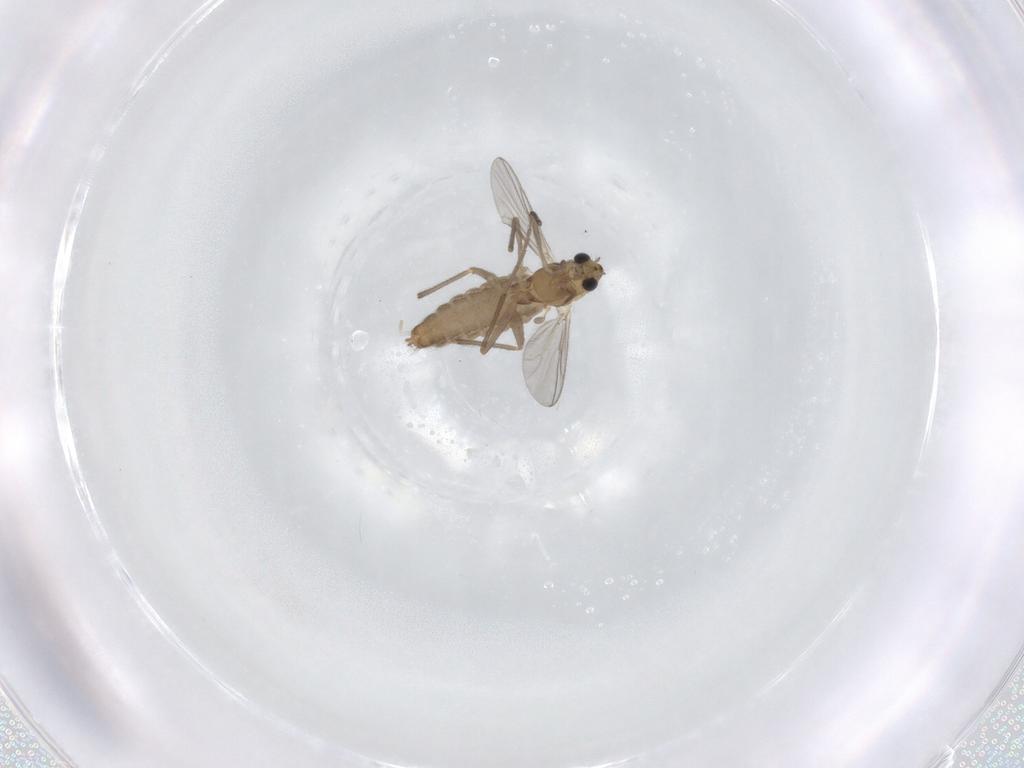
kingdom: Animalia
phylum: Arthropoda
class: Insecta
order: Diptera
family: Chironomidae
